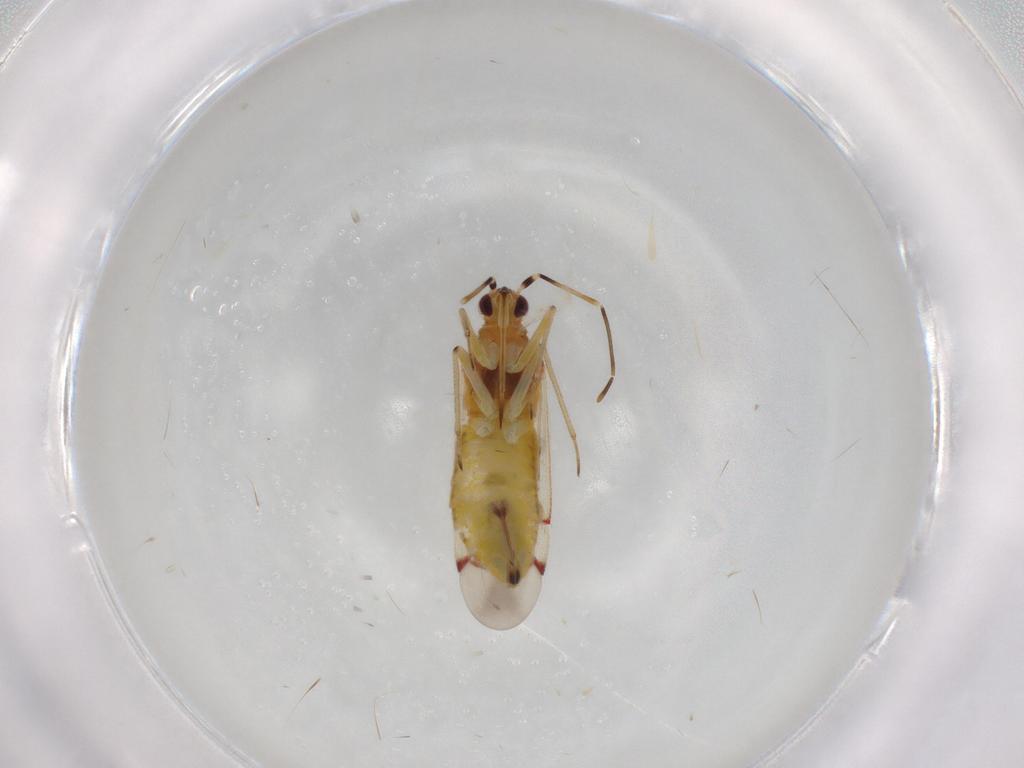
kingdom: Animalia
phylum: Arthropoda
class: Insecta
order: Hemiptera
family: Miridae
